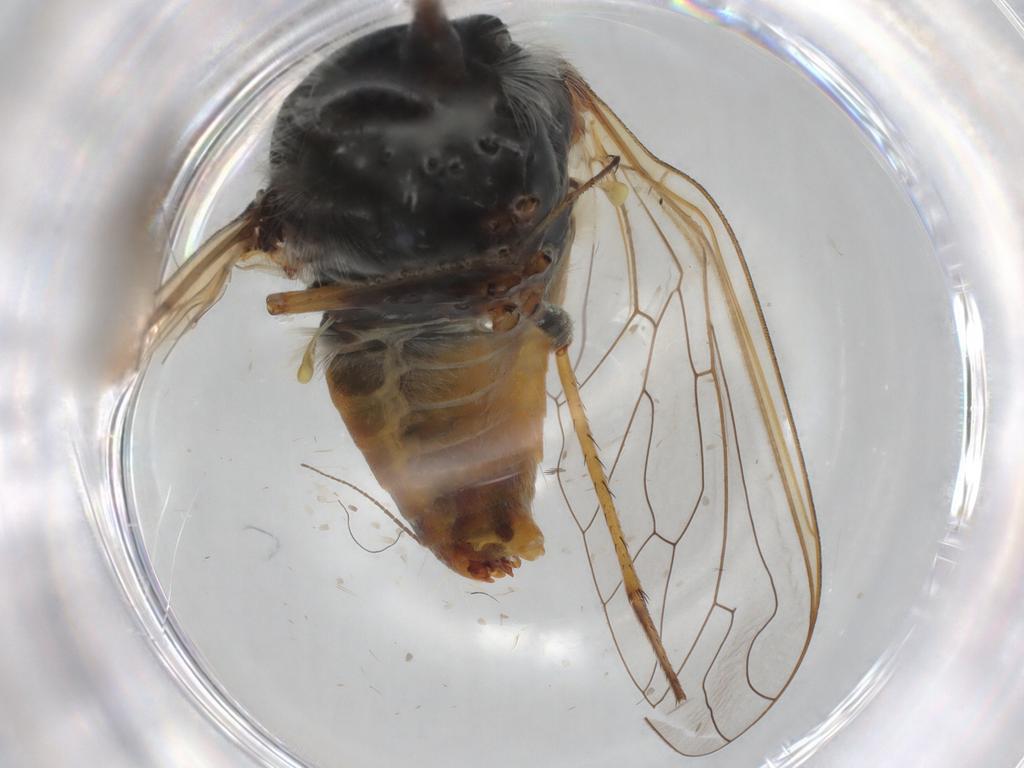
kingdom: Animalia
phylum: Arthropoda
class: Insecta
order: Diptera
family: Bombyliidae
